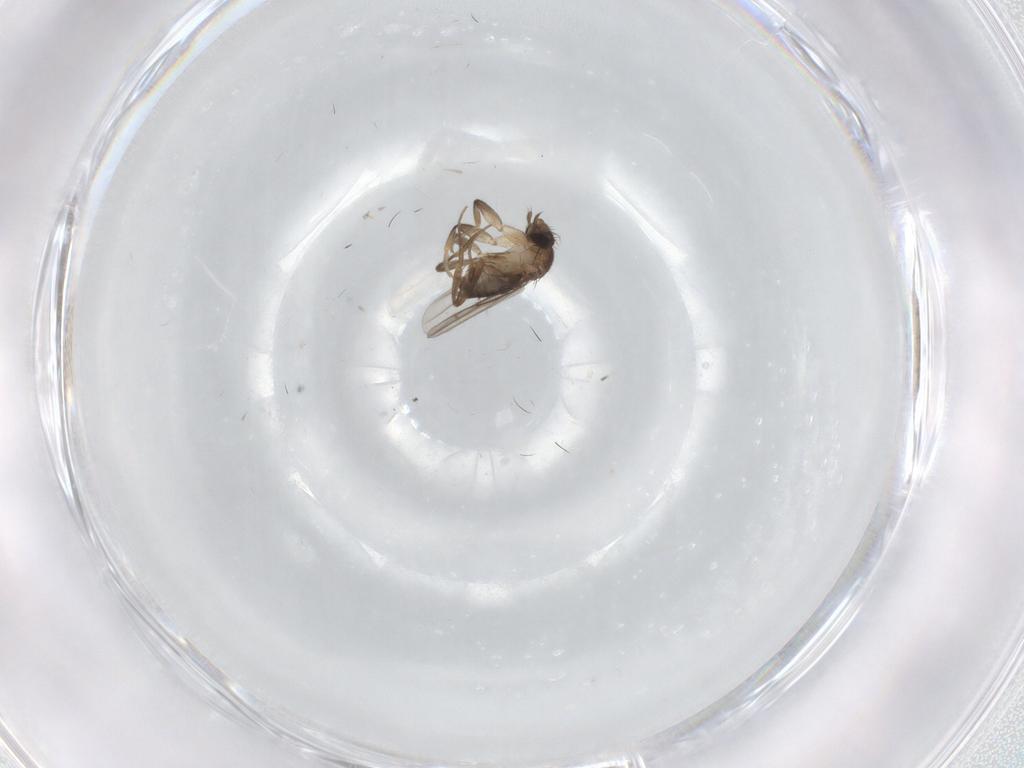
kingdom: Animalia
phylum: Arthropoda
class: Insecta
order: Diptera
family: Phoridae
